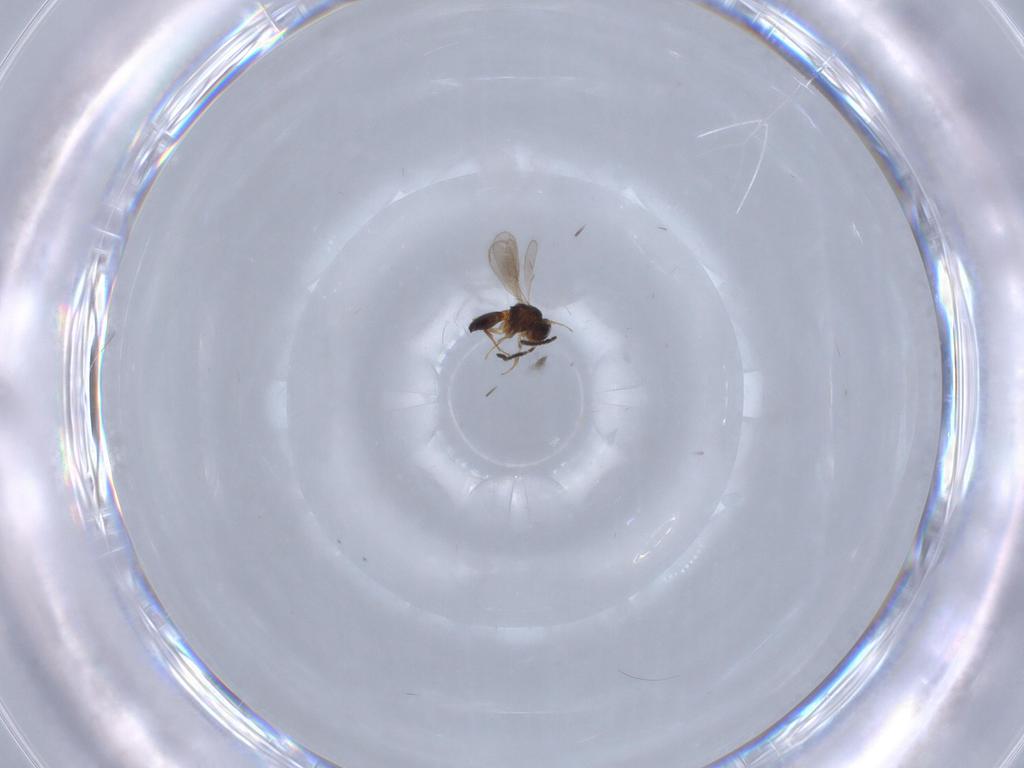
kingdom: Animalia
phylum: Arthropoda
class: Insecta
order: Hymenoptera
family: Scelionidae
